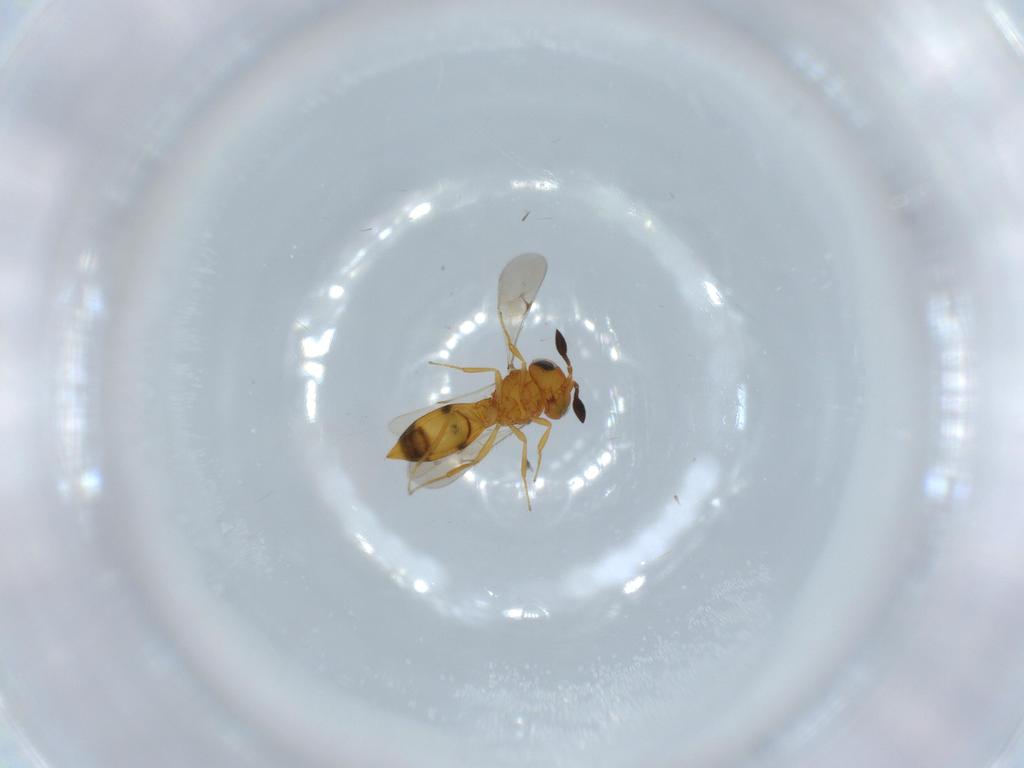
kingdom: Animalia
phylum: Arthropoda
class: Insecta
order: Hymenoptera
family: Scelionidae
